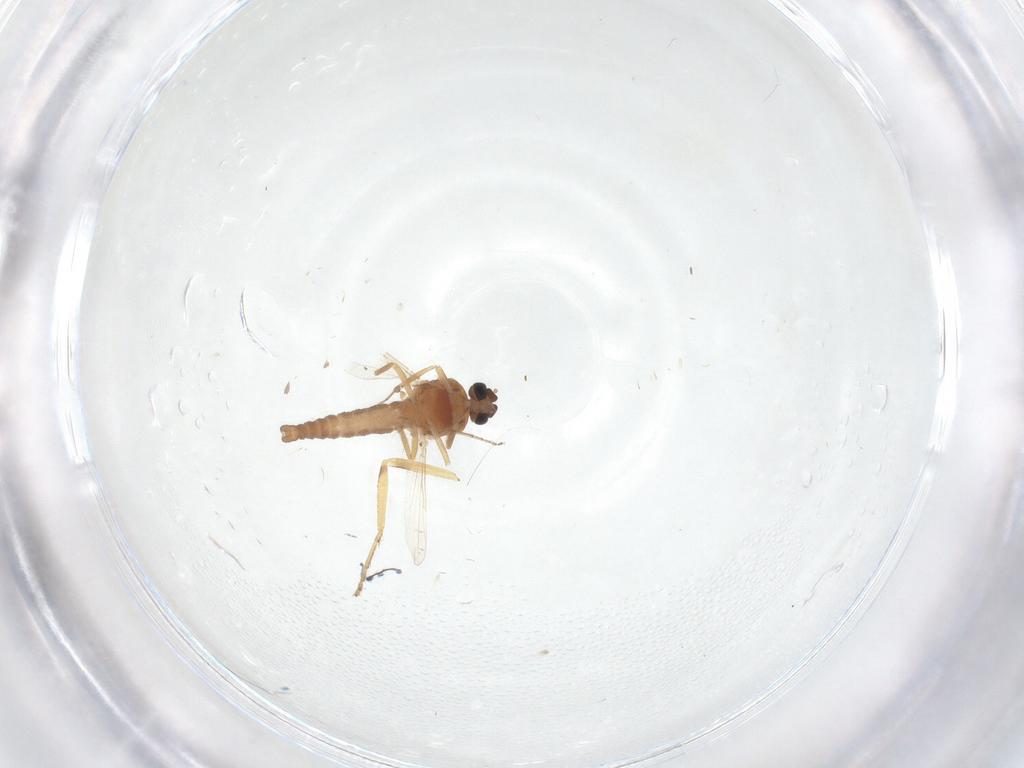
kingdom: Animalia
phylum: Arthropoda
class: Insecta
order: Diptera
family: Ceratopogonidae
